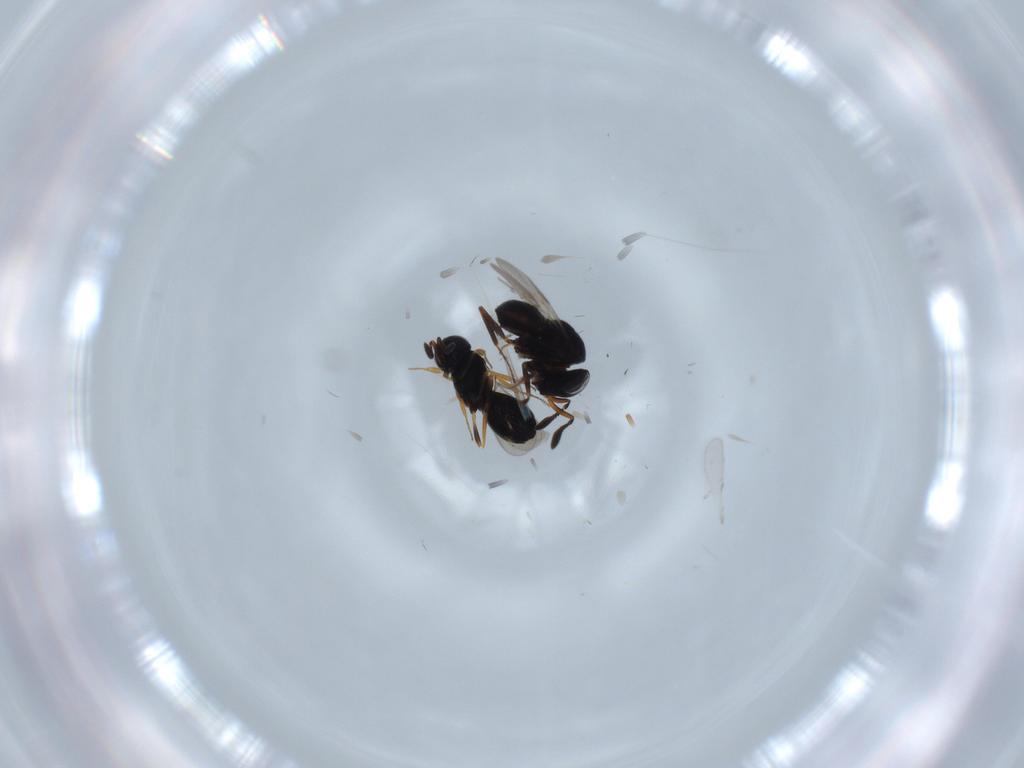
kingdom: Animalia
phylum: Arthropoda
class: Insecta
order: Hymenoptera
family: Scelionidae
